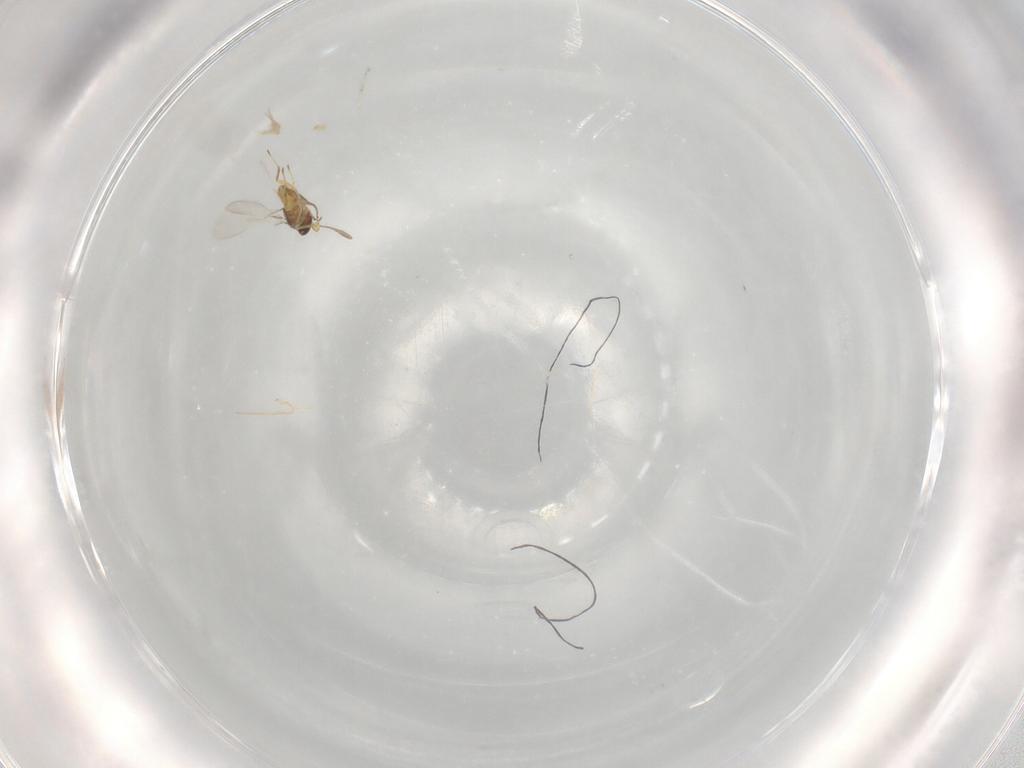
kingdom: Animalia
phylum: Arthropoda
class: Insecta
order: Hymenoptera
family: Mymaridae
